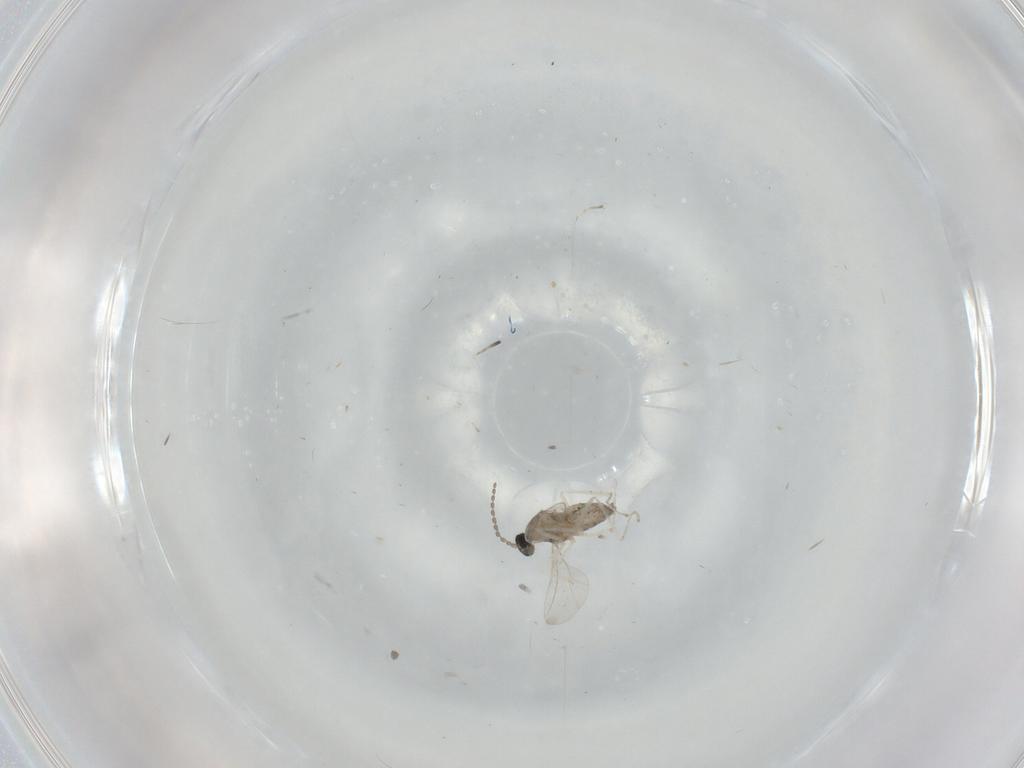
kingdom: Animalia
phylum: Arthropoda
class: Insecta
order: Diptera
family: Cecidomyiidae
